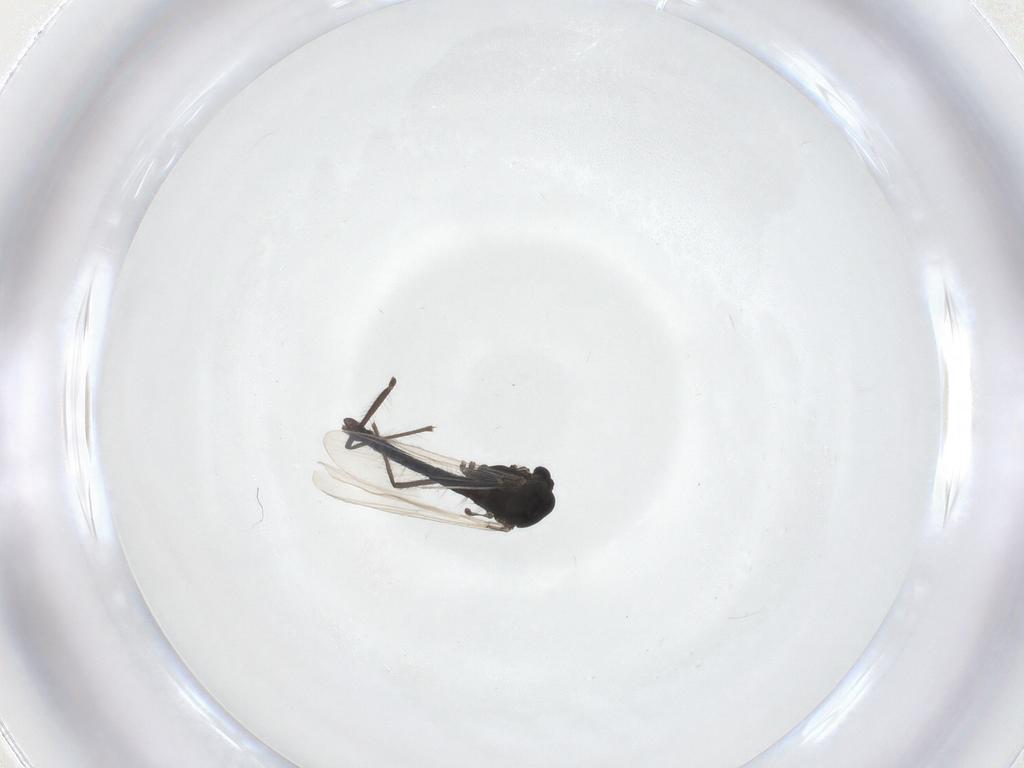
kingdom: Animalia
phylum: Arthropoda
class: Insecta
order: Diptera
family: Chironomidae
